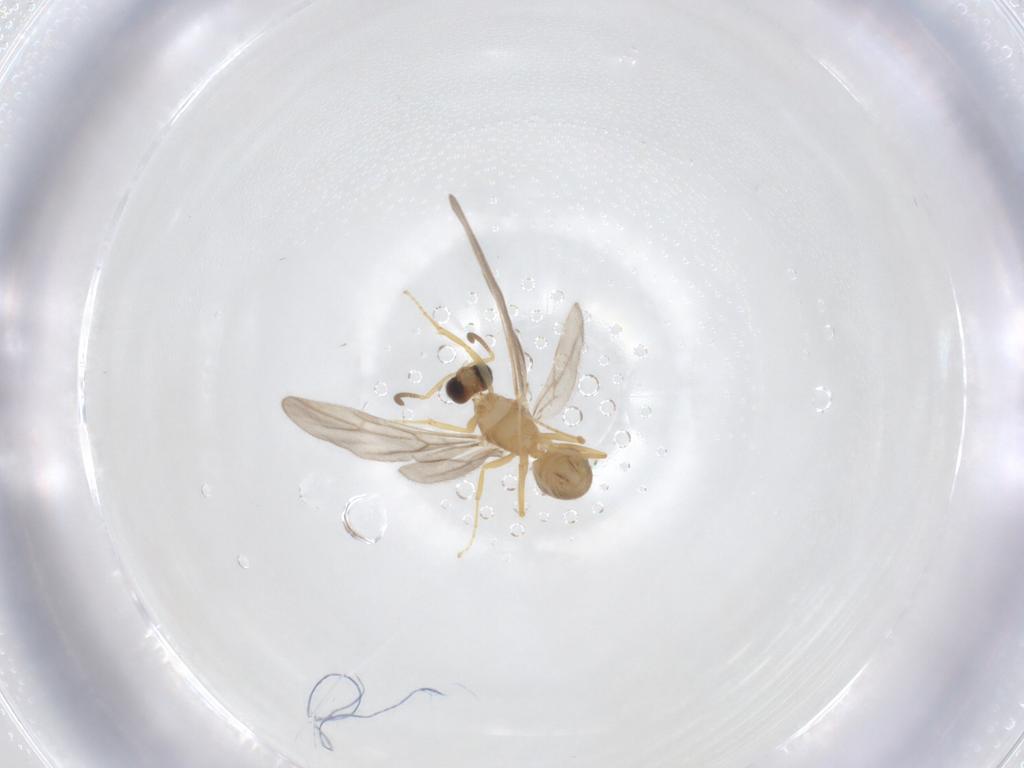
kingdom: Animalia
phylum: Arthropoda
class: Insecta
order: Hymenoptera
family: Formicidae
